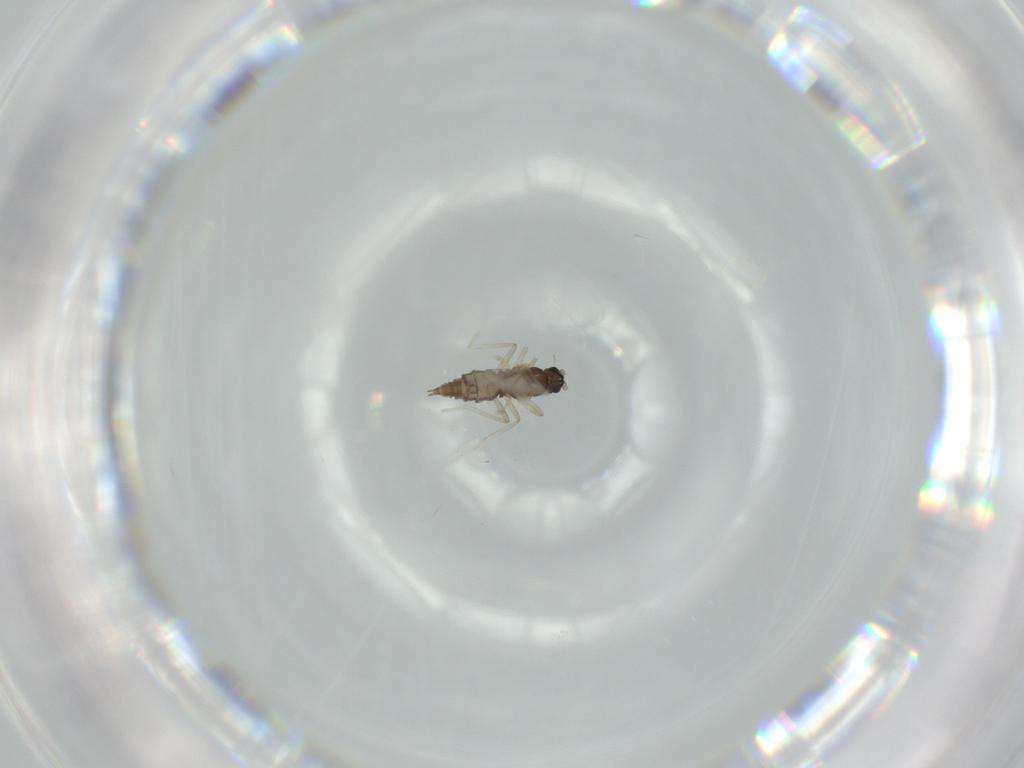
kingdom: Animalia
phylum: Arthropoda
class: Insecta
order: Diptera
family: Cecidomyiidae
